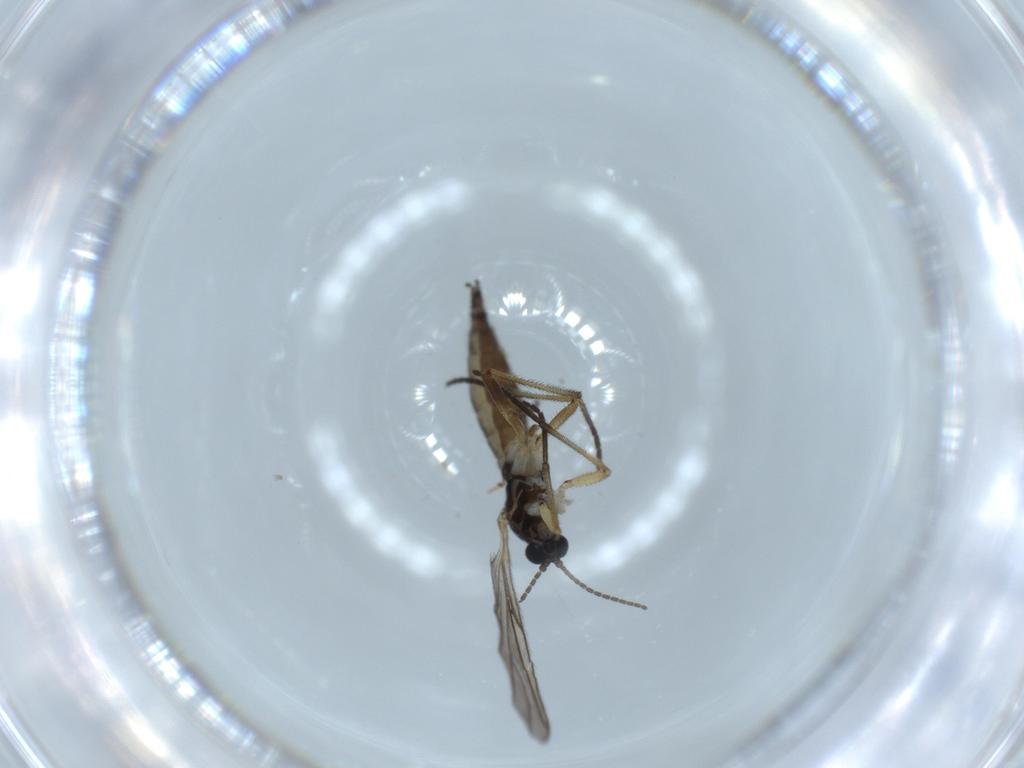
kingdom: Animalia
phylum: Arthropoda
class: Insecta
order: Diptera
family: Sciaridae
